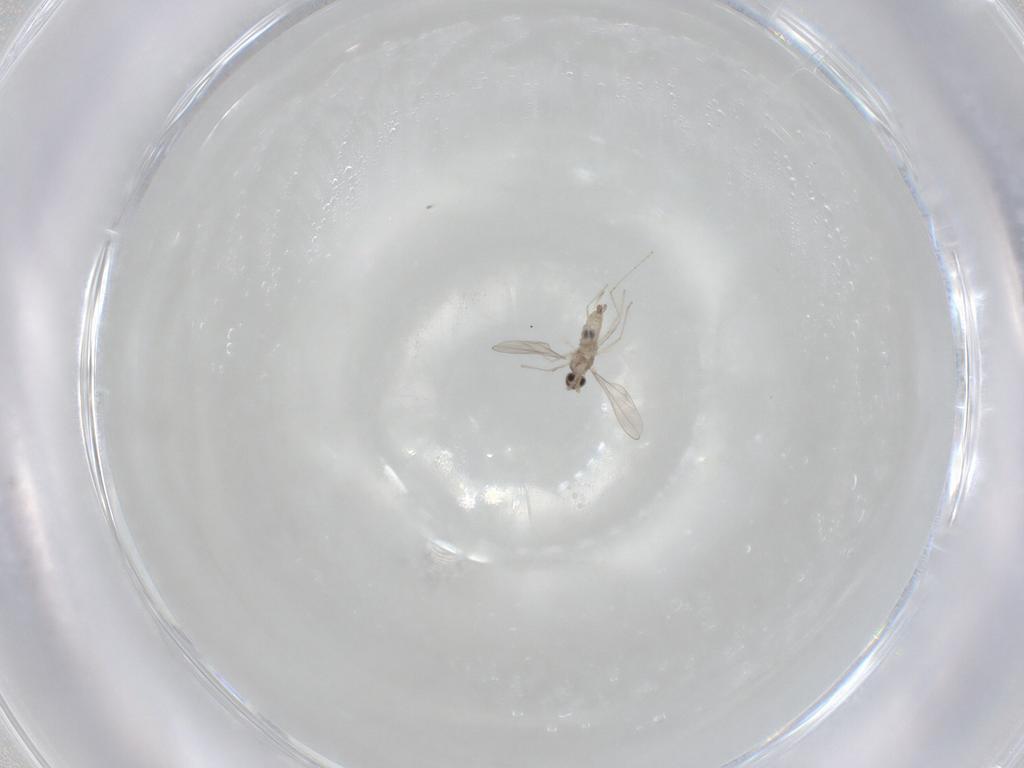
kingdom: Animalia
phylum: Arthropoda
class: Insecta
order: Diptera
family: Cecidomyiidae
